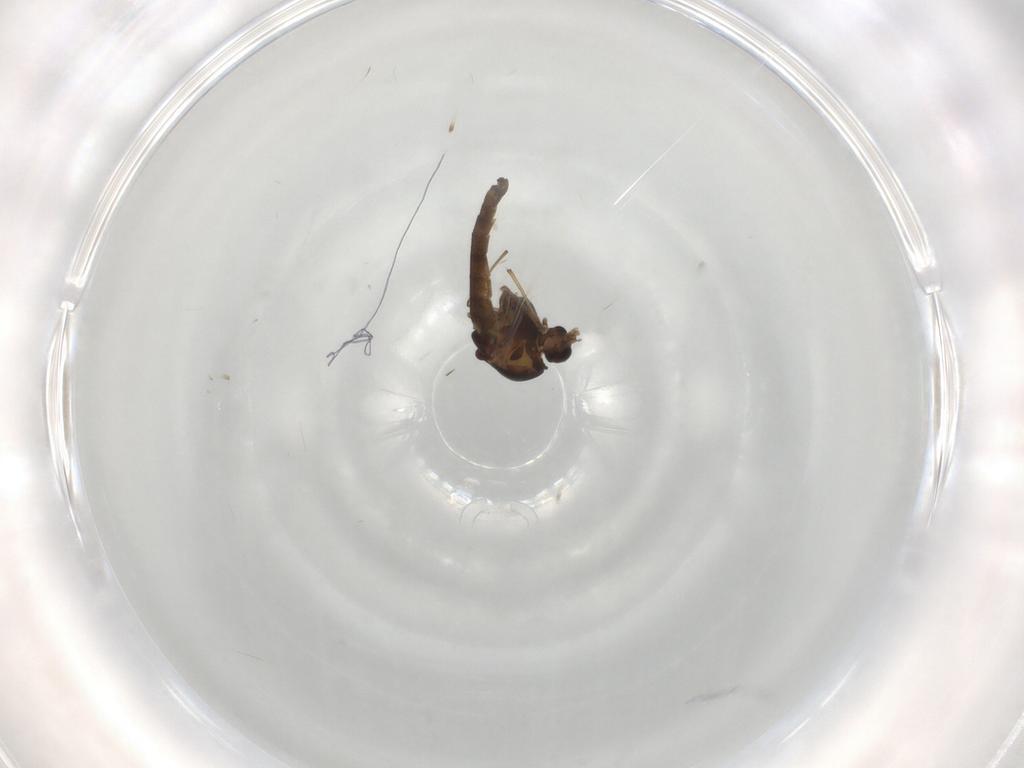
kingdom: Animalia
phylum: Arthropoda
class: Insecta
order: Diptera
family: Chironomidae
